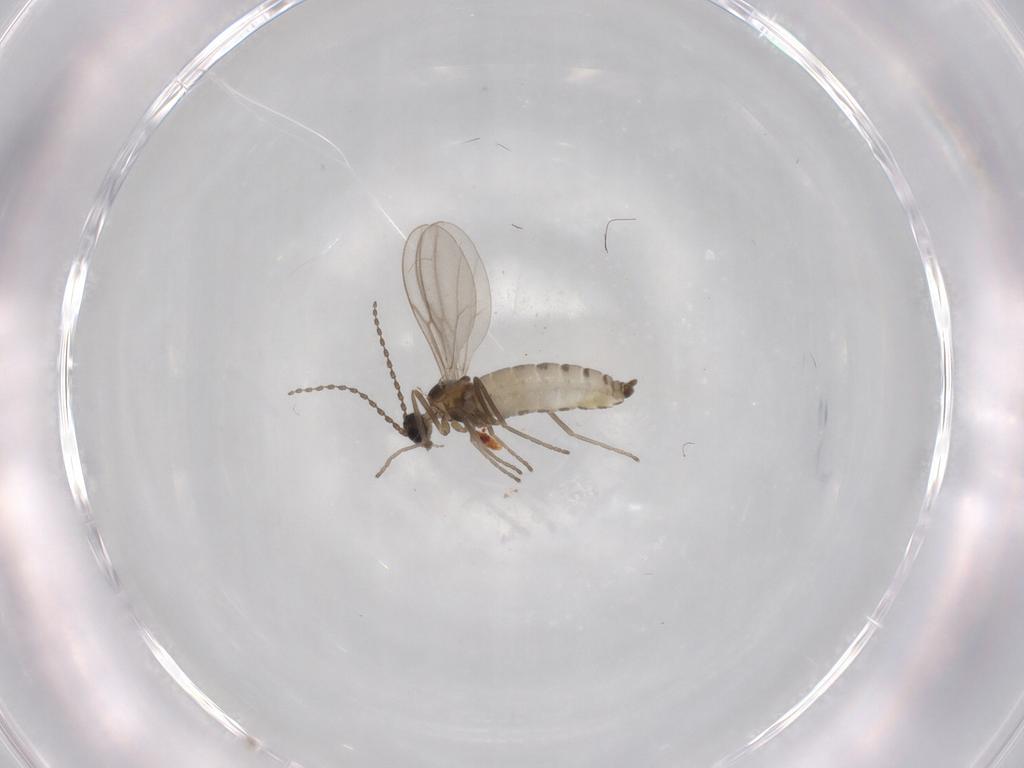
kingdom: Animalia
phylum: Arthropoda
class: Insecta
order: Diptera
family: Cecidomyiidae
